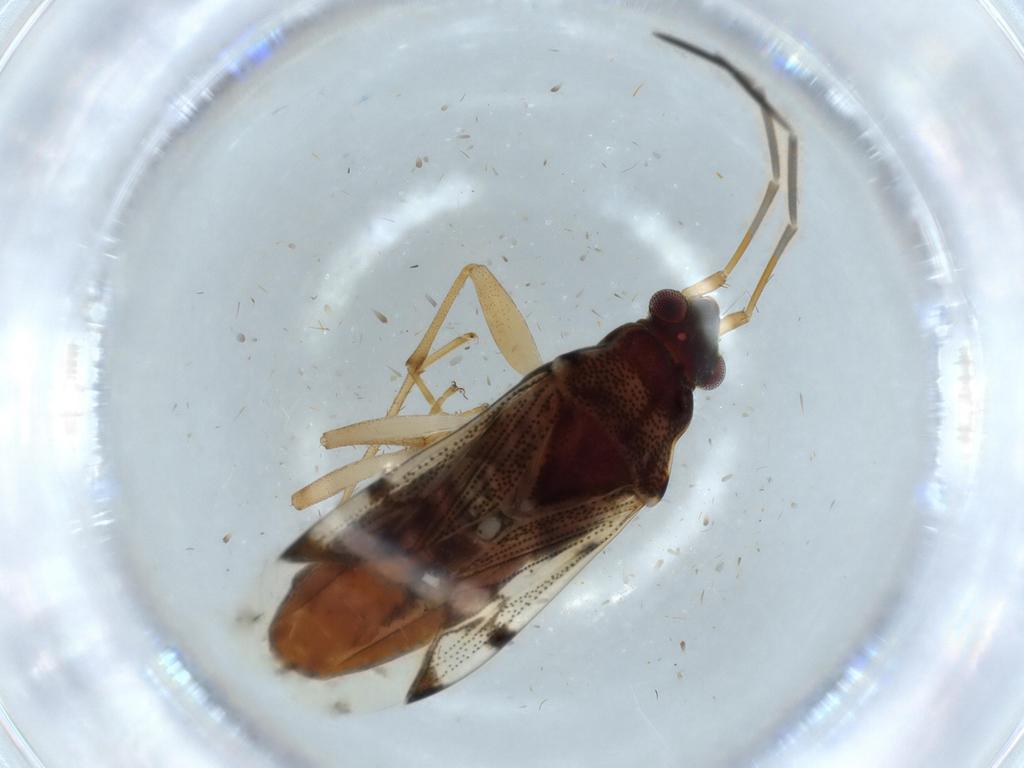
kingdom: Animalia
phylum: Arthropoda
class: Insecta
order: Hemiptera
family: Rhyparochromidae
